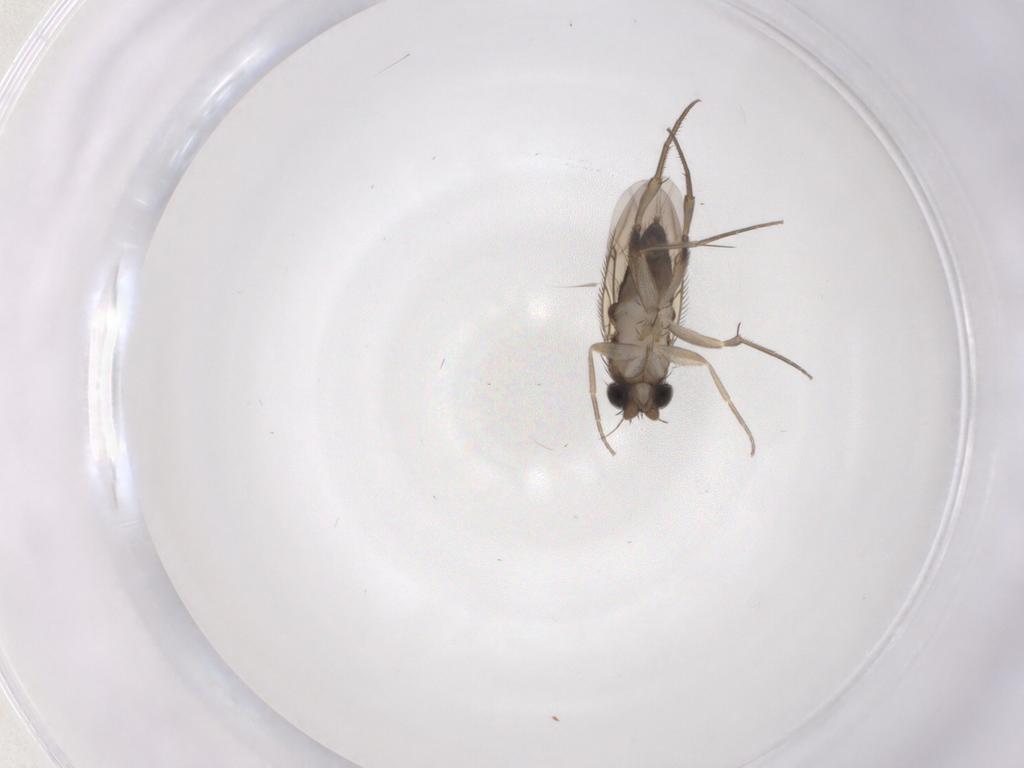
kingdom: Animalia
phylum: Arthropoda
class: Insecta
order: Diptera
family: Phoridae
